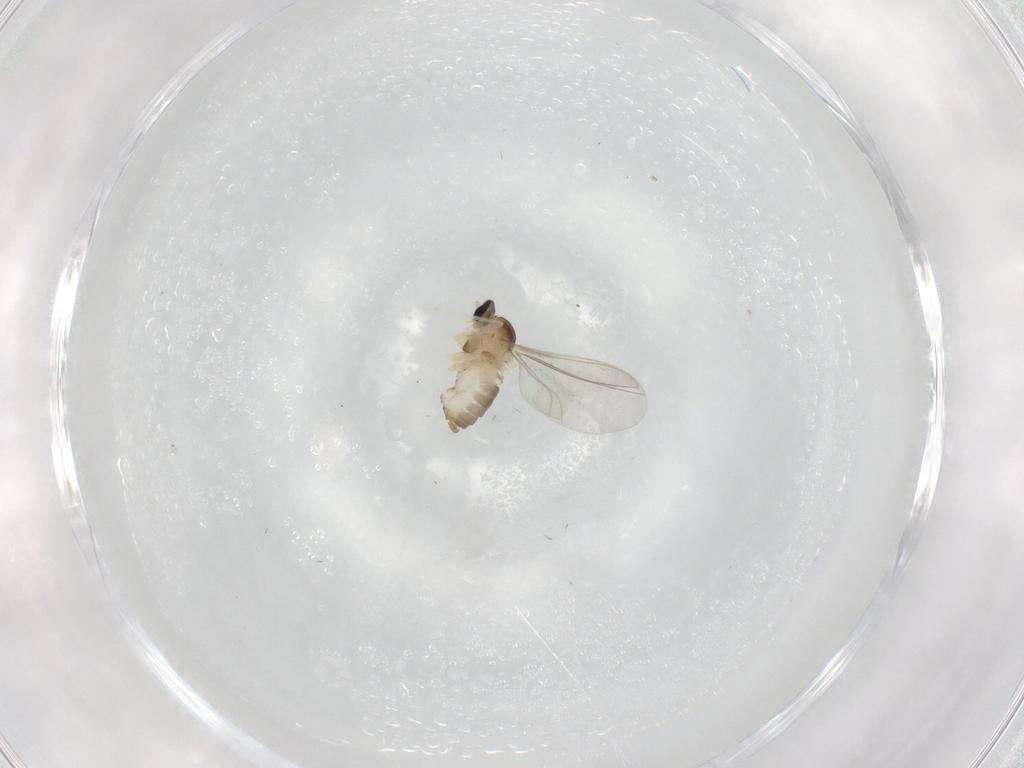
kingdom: Animalia
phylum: Arthropoda
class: Insecta
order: Diptera
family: Cecidomyiidae
